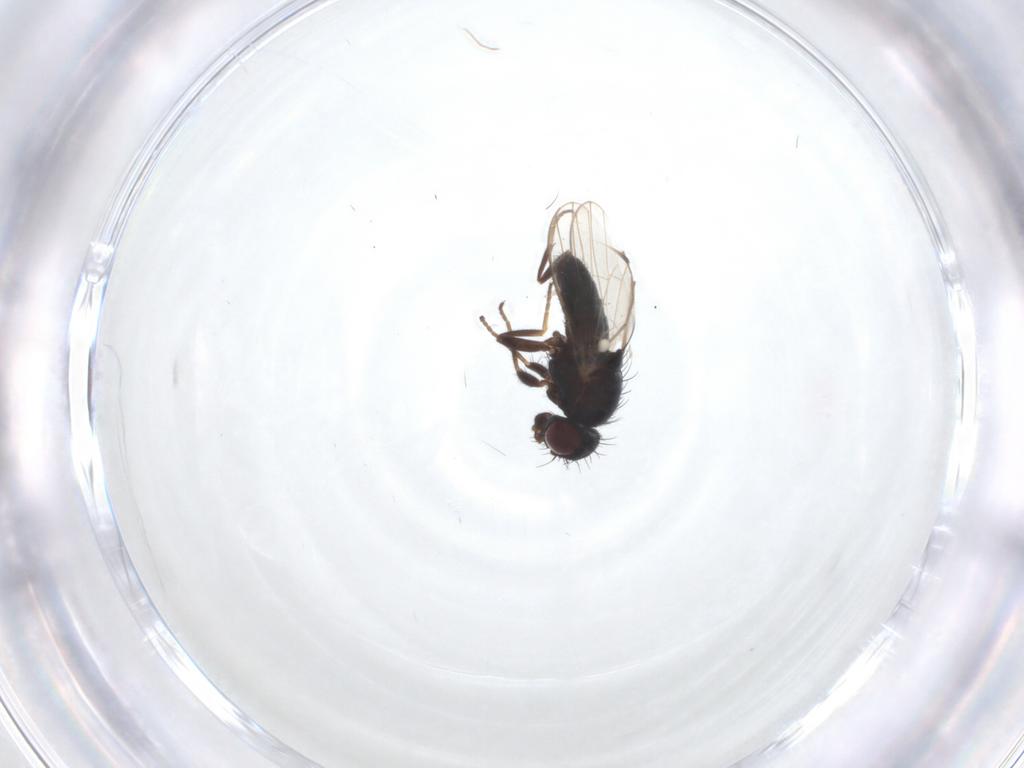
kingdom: Animalia
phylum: Arthropoda
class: Insecta
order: Diptera
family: Carnidae
